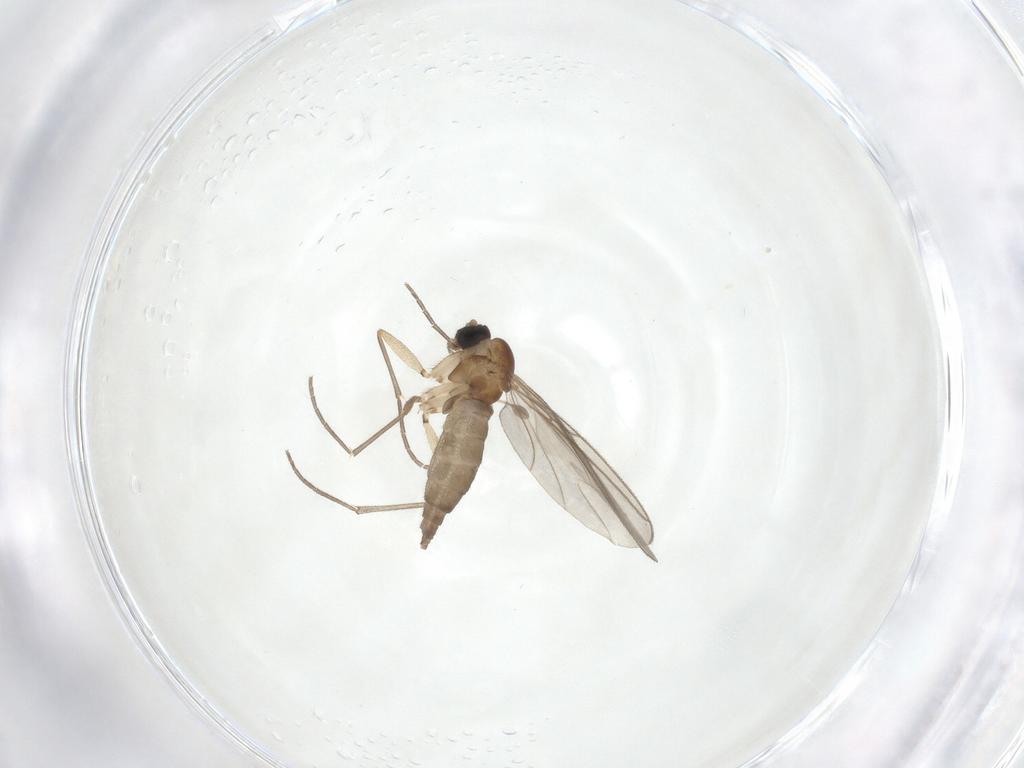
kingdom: Animalia
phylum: Arthropoda
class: Insecta
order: Diptera
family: Sciaridae
